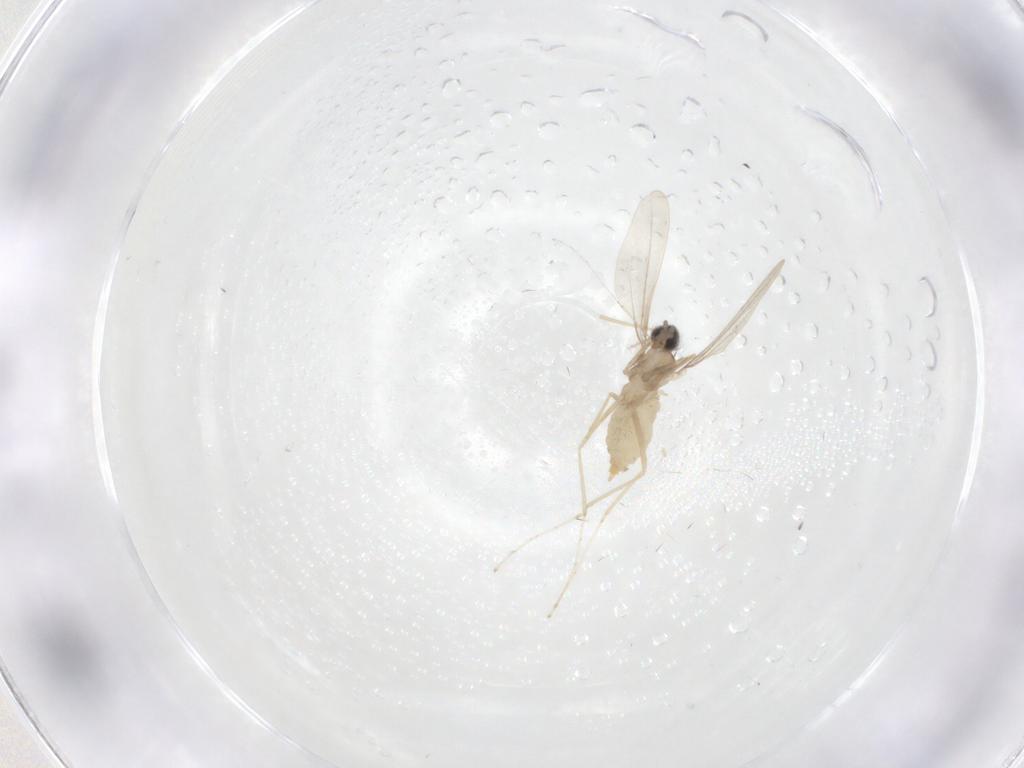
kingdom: Animalia
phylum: Arthropoda
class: Insecta
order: Diptera
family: Cecidomyiidae
